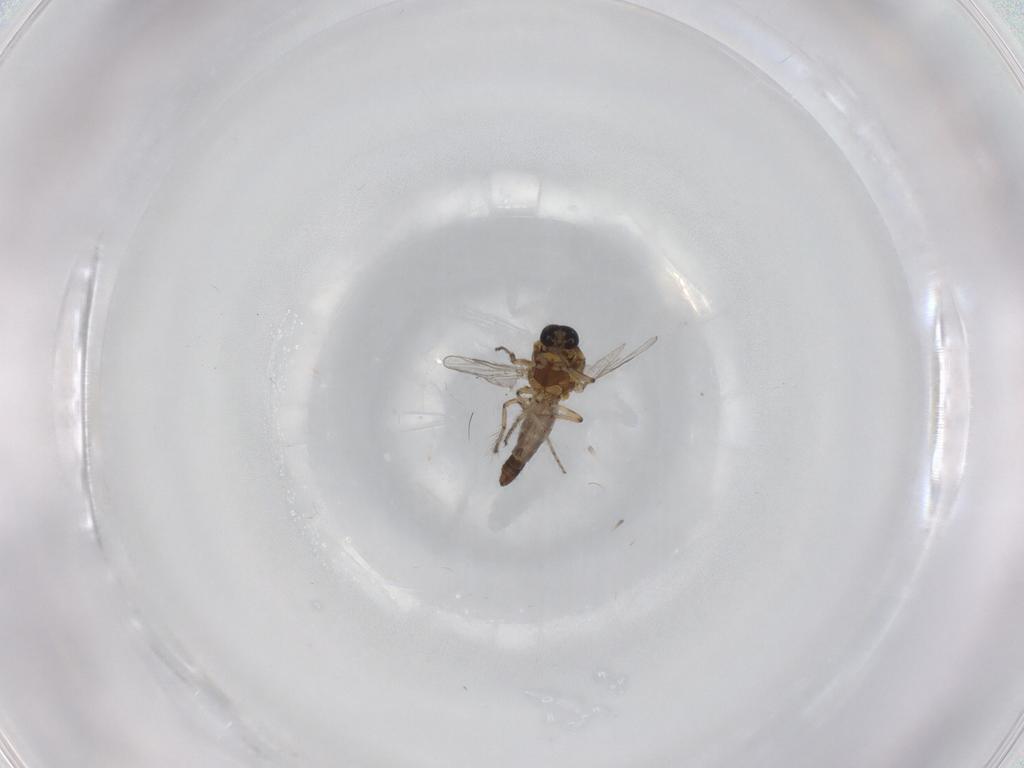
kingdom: Animalia
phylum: Arthropoda
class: Insecta
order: Diptera
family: Ceratopogonidae
